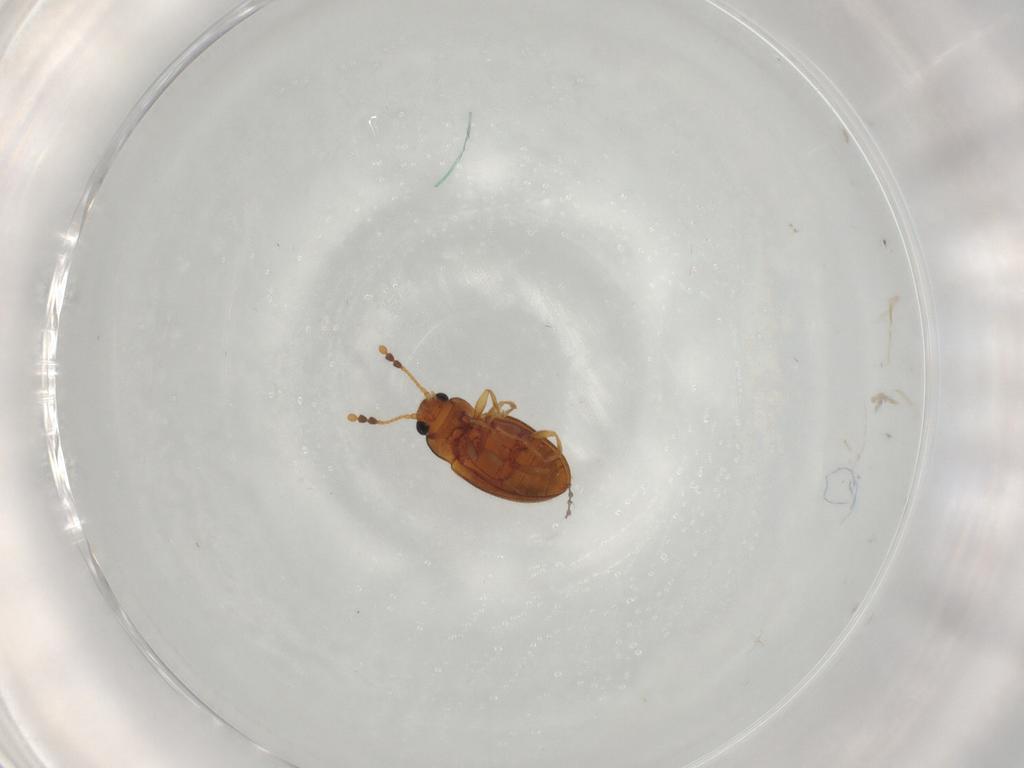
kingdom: Animalia
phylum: Arthropoda
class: Insecta
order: Coleoptera
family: Erotylidae
